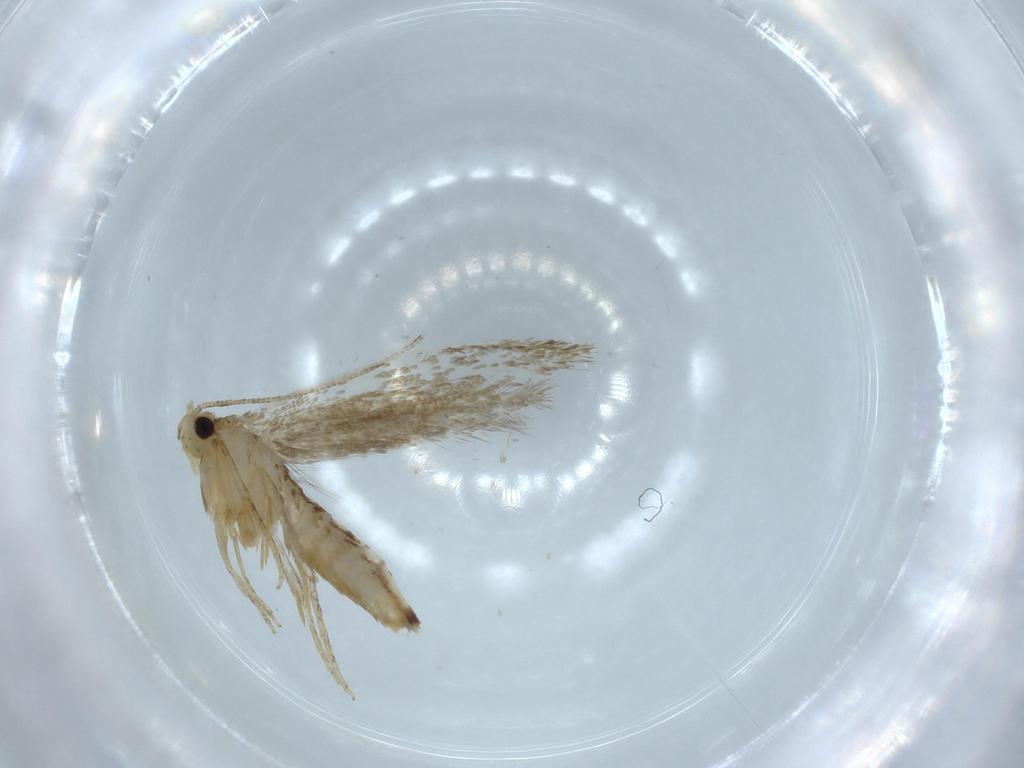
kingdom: Animalia
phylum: Arthropoda
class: Insecta
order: Lepidoptera
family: Tineidae
